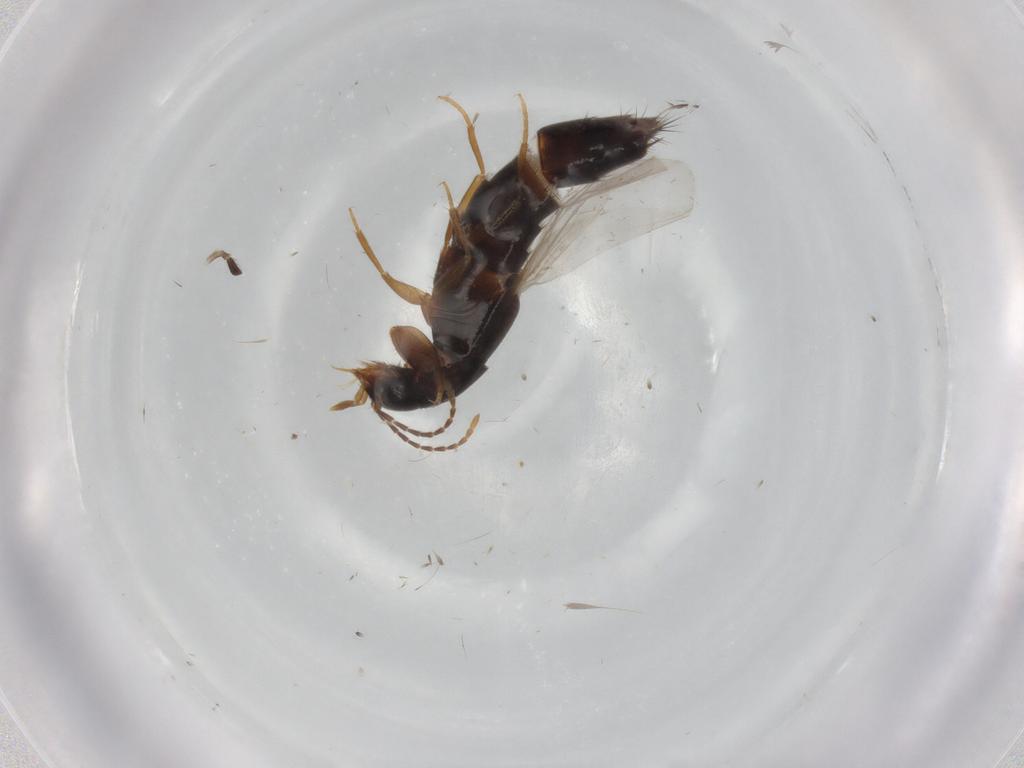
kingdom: Animalia
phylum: Arthropoda
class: Insecta
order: Coleoptera
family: Staphylinidae
